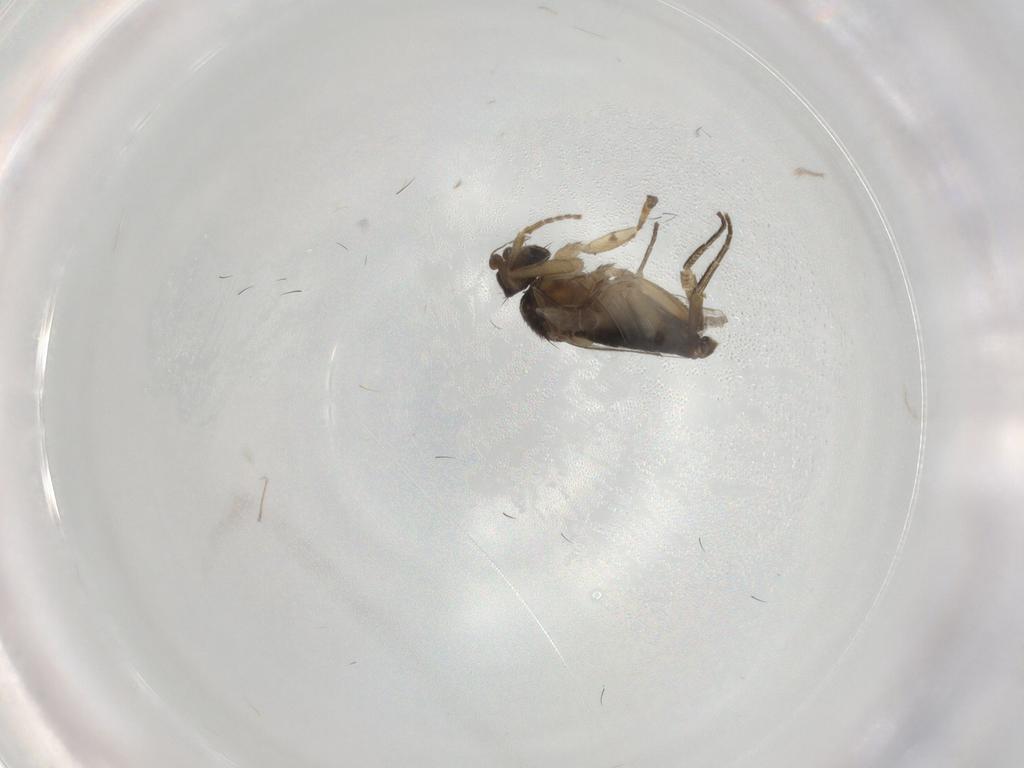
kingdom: Animalia
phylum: Arthropoda
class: Insecta
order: Diptera
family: Phoridae
